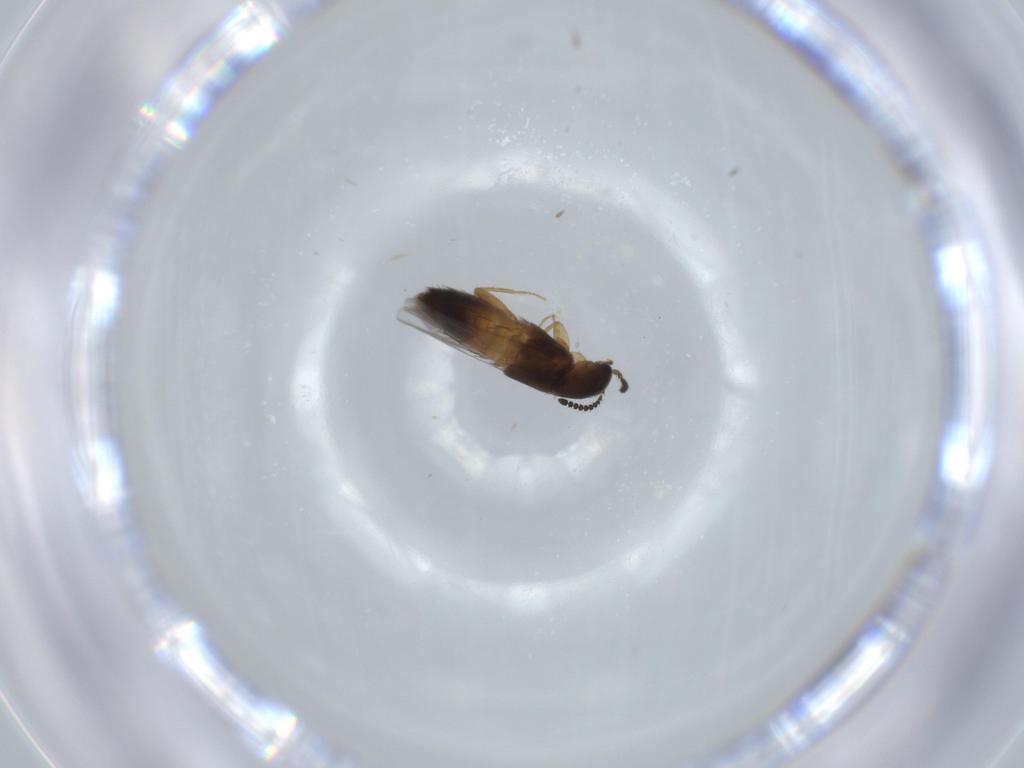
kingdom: Animalia
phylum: Arthropoda
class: Insecta
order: Coleoptera
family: Staphylinidae
